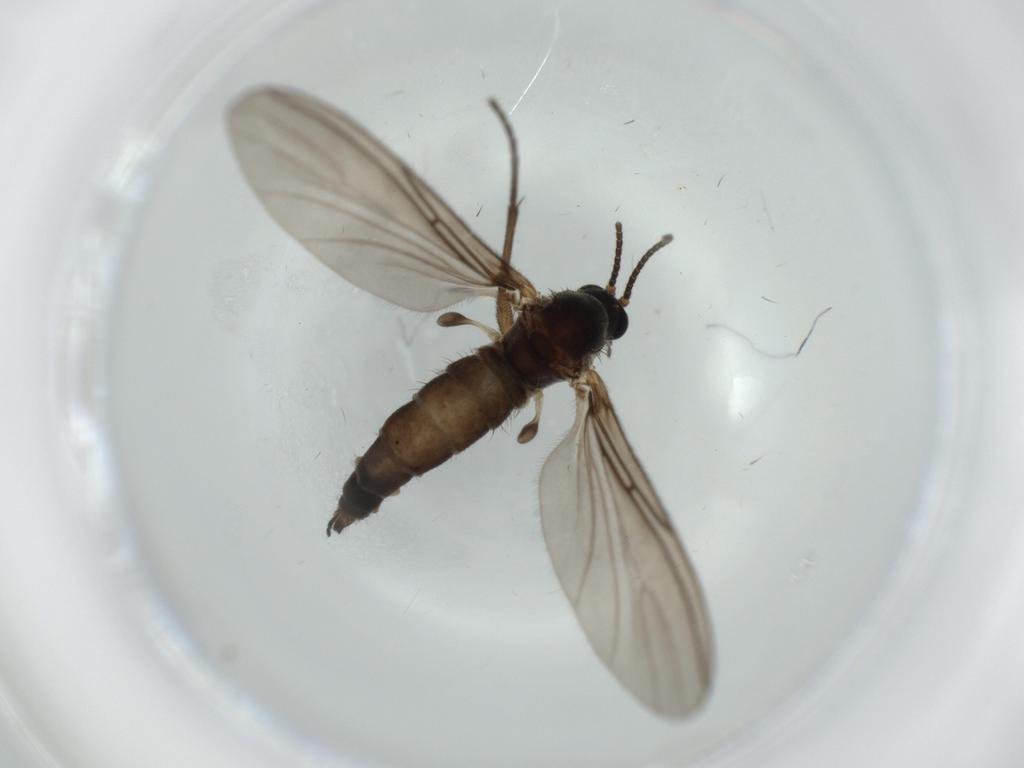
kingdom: Animalia
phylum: Arthropoda
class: Insecta
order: Diptera
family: Sciaridae
